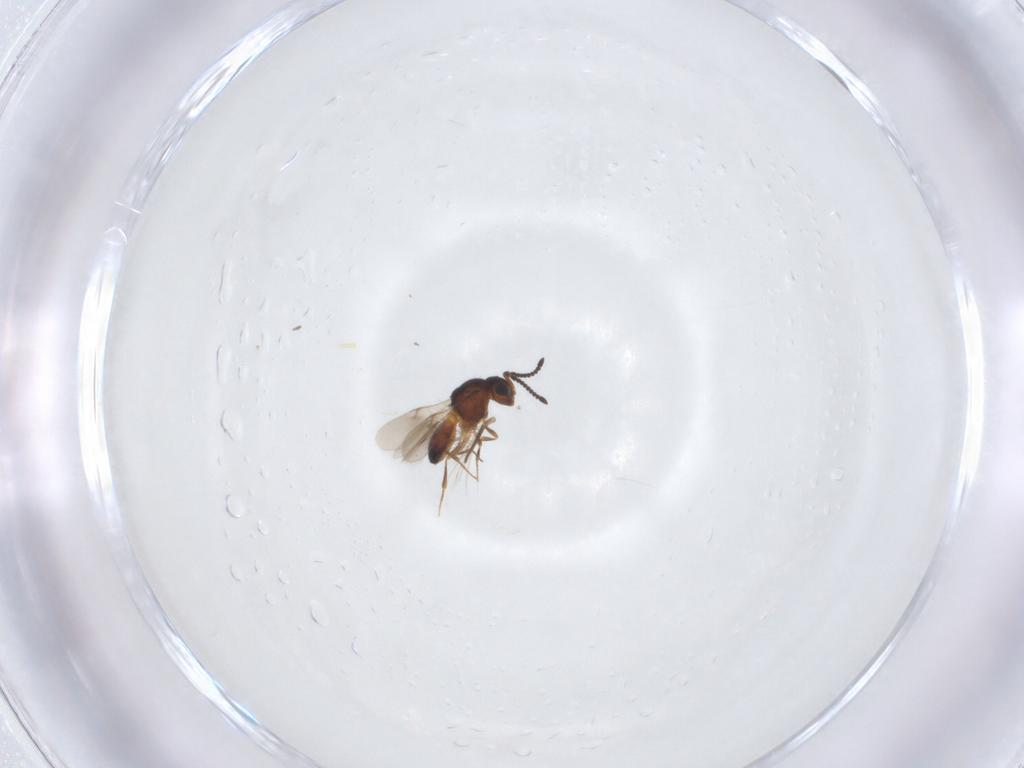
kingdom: Animalia
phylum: Arthropoda
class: Insecta
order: Hymenoptera
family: Scelionidae
